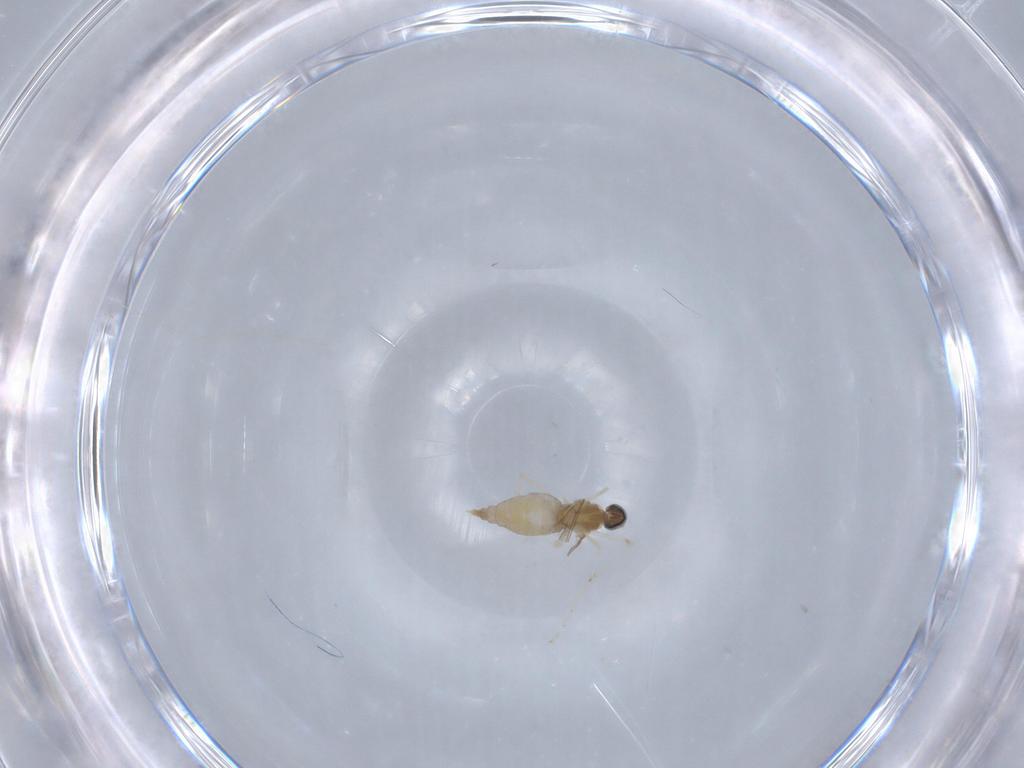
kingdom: Animalia
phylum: Arthropoda
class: Insecta
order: Diptera
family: Cecidomyiidae
